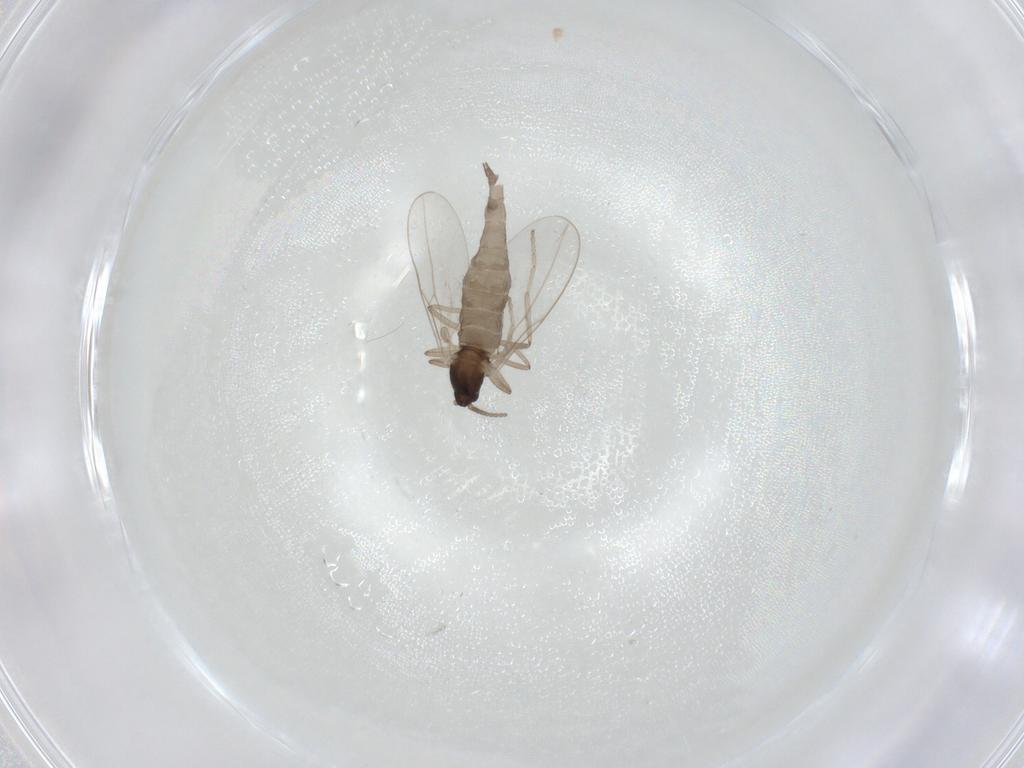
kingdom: Animalia
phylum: Arthropoda
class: Insecta
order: Diptera
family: Cecidomyiidae
